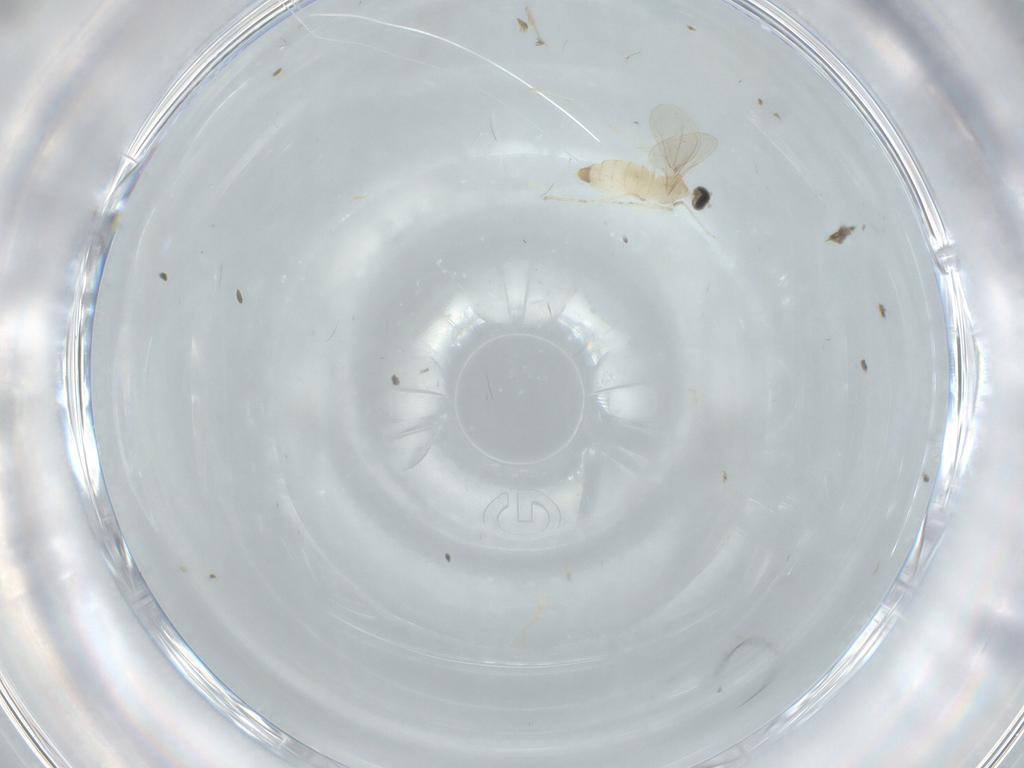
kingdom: Animalia
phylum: Arthropoda
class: Insecta
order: Diptera
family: Cecidomyiidae
